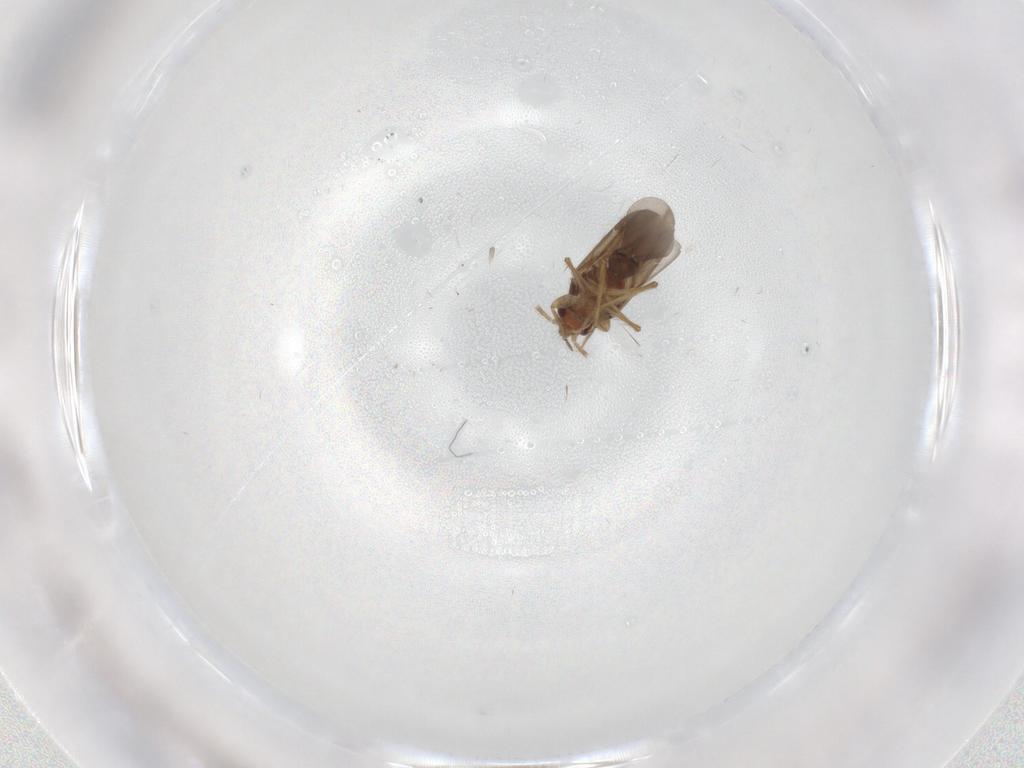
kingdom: Animalia
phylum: Arthropoda
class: Insecta
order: Hemiptera
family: Ceratocombidae
